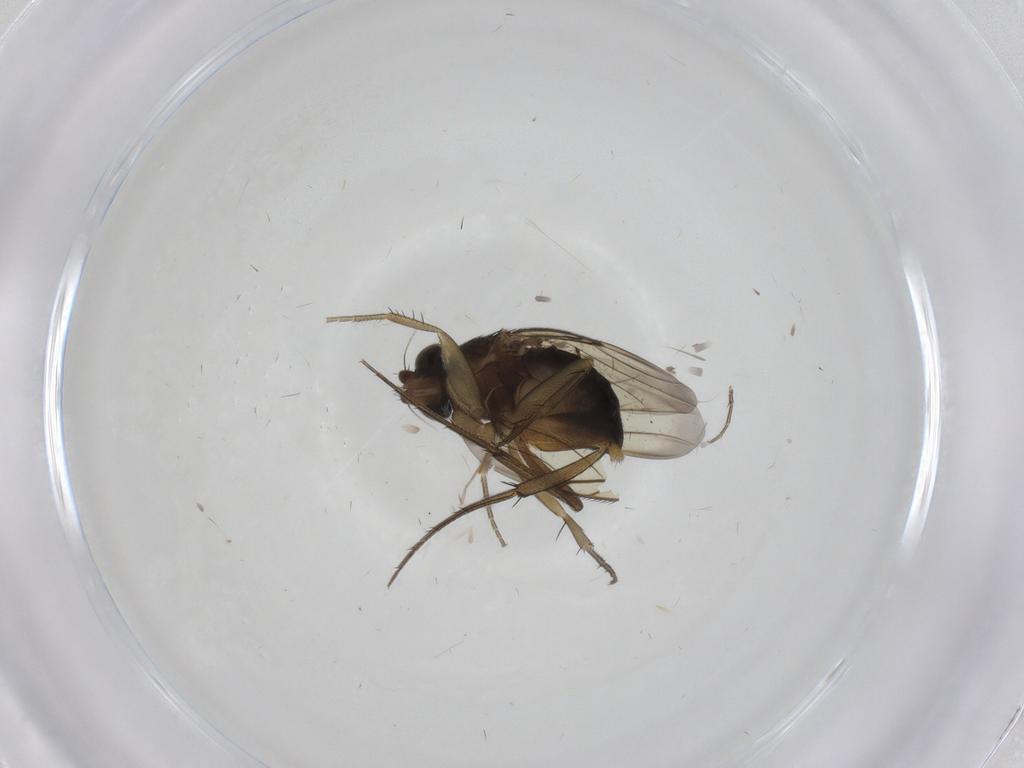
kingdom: Animalia
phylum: Arthropoda
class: Insecta
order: Diptera
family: Phoridae
